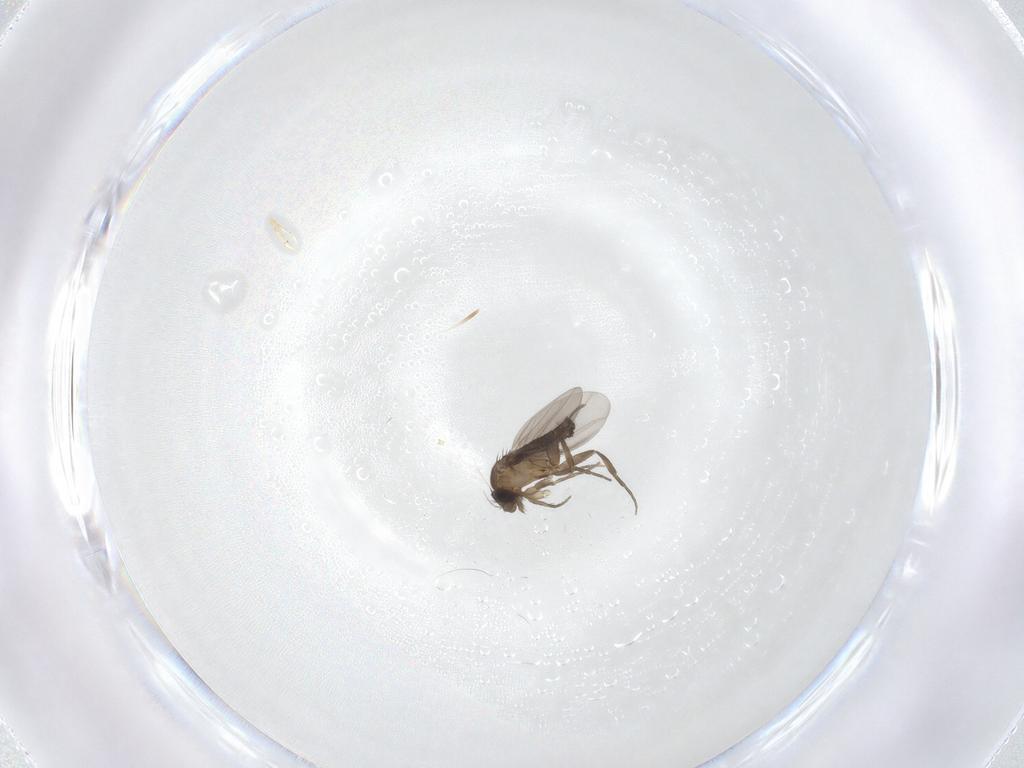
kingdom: Animalia
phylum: Arthropoda
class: Insecta
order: Diptera
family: Phoridae
